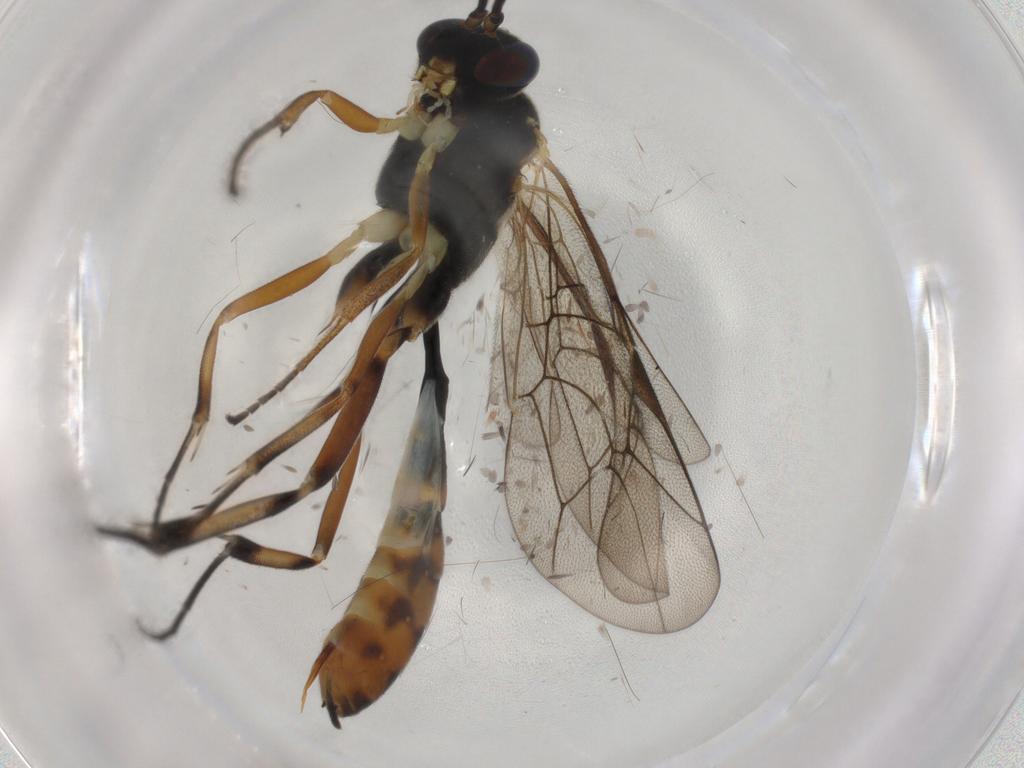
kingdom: Animalia
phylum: Arthropoda
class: Insecta
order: Hymenoptera
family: Ichneumonidae
